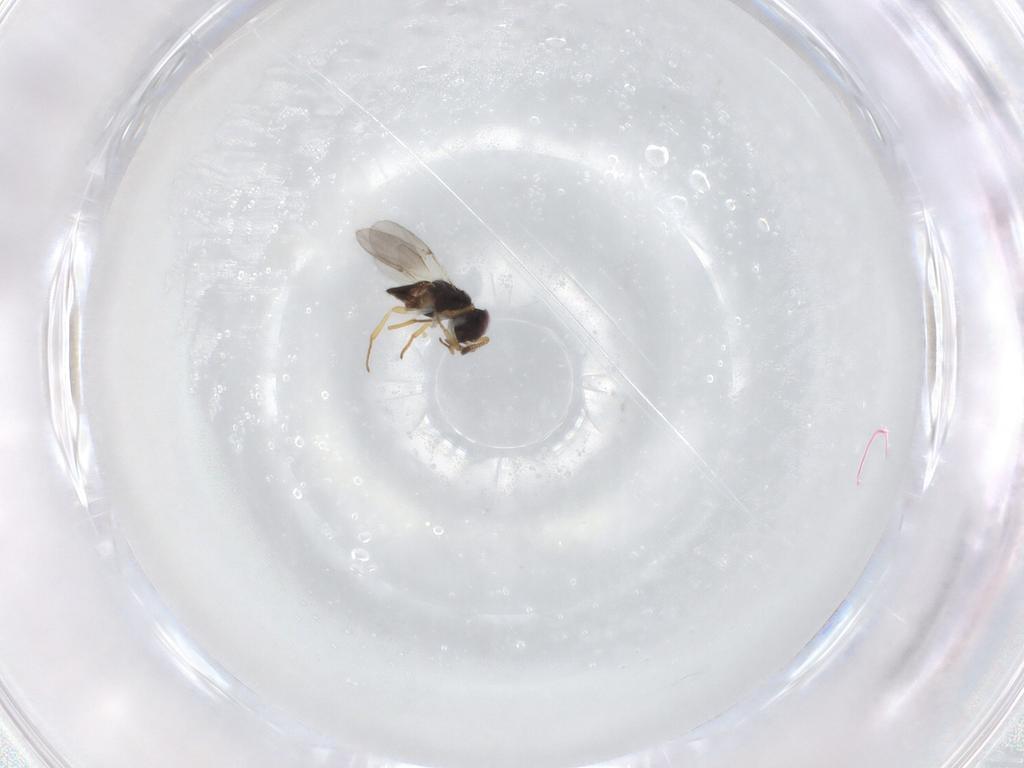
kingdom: Animalia
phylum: Arthropoda
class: Insecta
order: Hymenoptera
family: Encyrtidae
